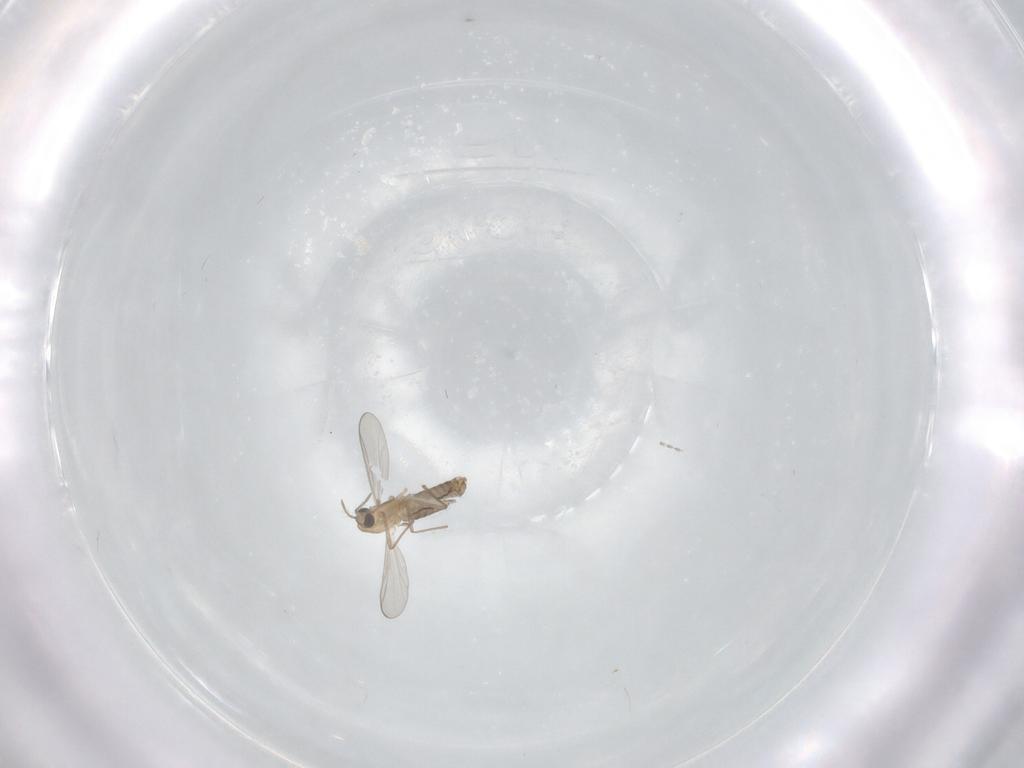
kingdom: Animalia
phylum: Arthropoda
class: Insecta
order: Diptera
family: Chironomidae
